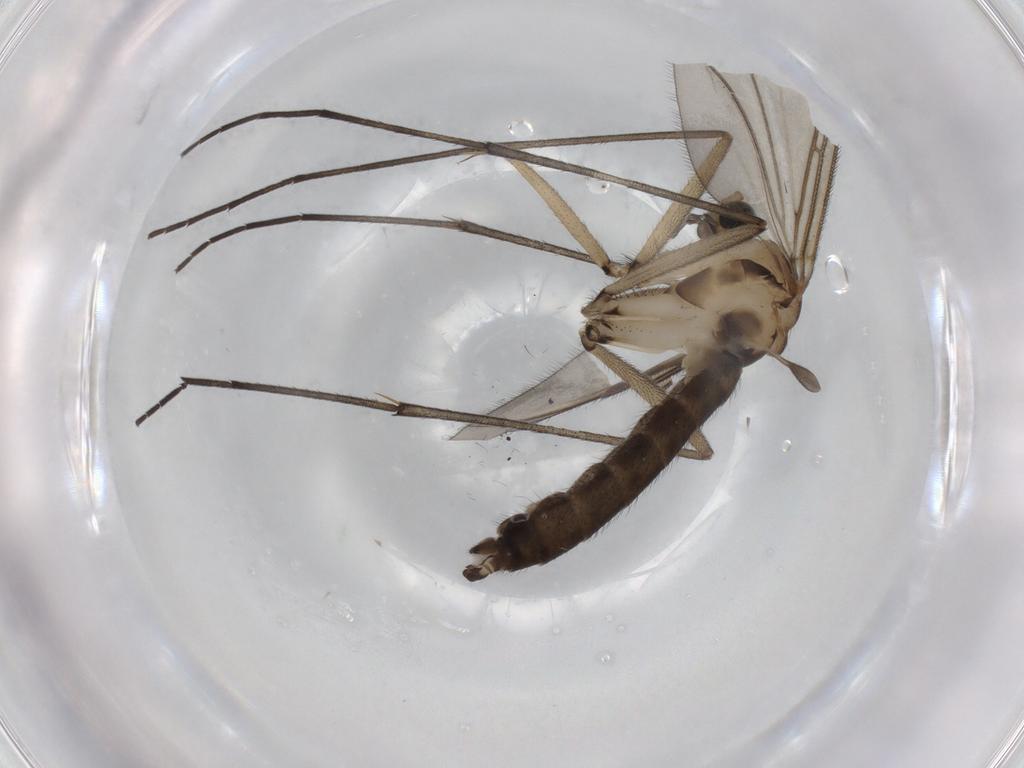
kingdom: Animalia
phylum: Arthropoda
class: Insecta
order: Diptera
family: Sciaridae
